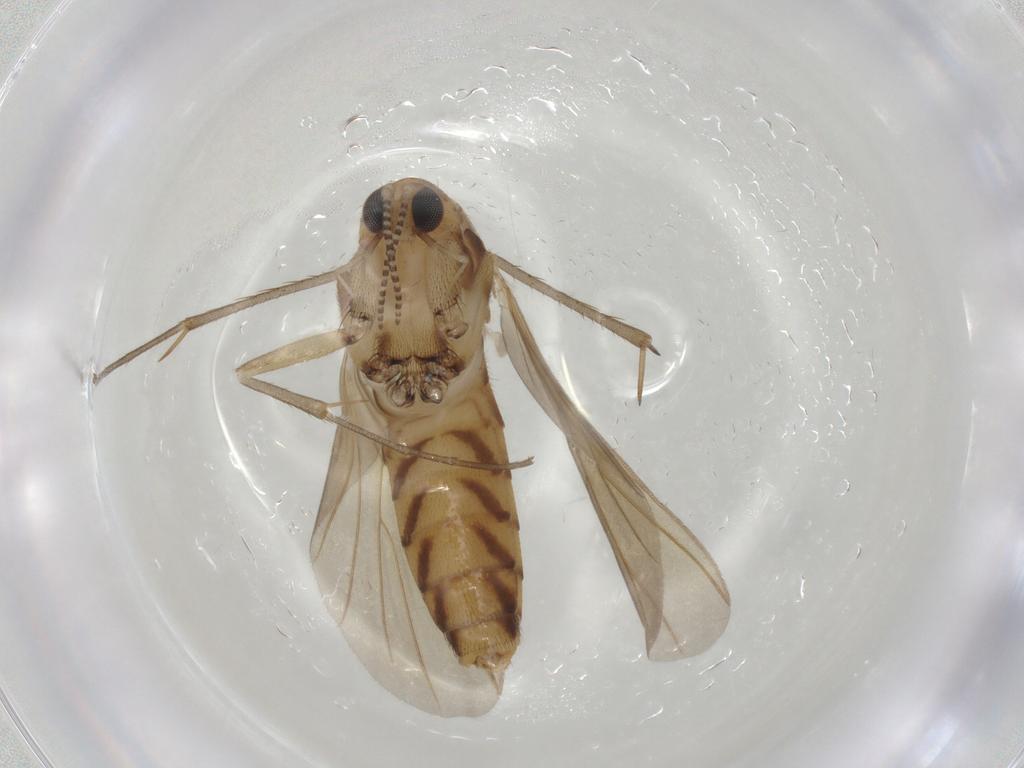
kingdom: Animalia
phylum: Arthropoda
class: Insecta
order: Diptera
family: Mycetophilidae
